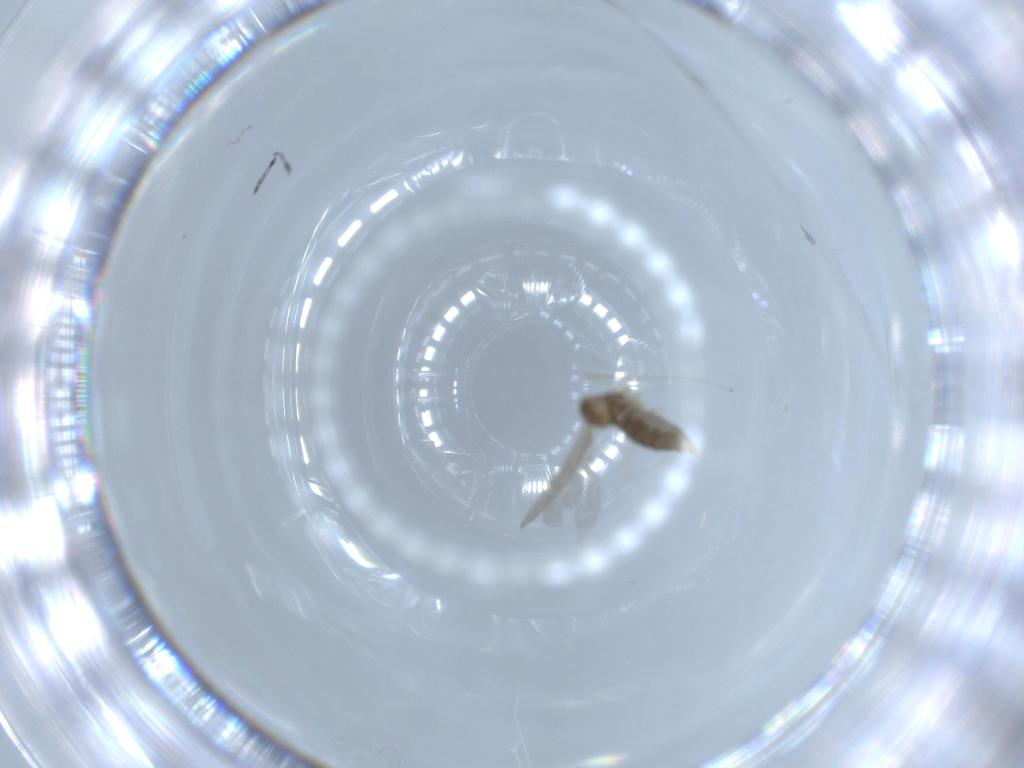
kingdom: Animalia
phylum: Arthropoda
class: Insecta
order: Diptera
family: Cecidomyiidae
